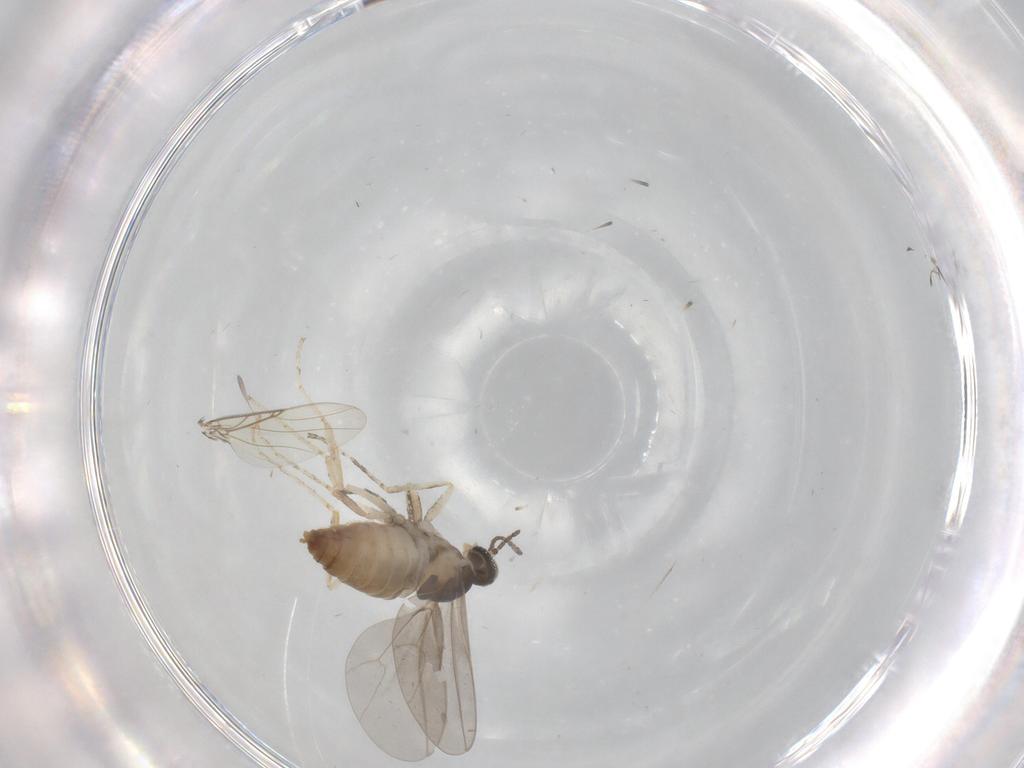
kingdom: Animalia
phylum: Arthropoda
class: Insecta
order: Diptera
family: Cecidomyiidae
